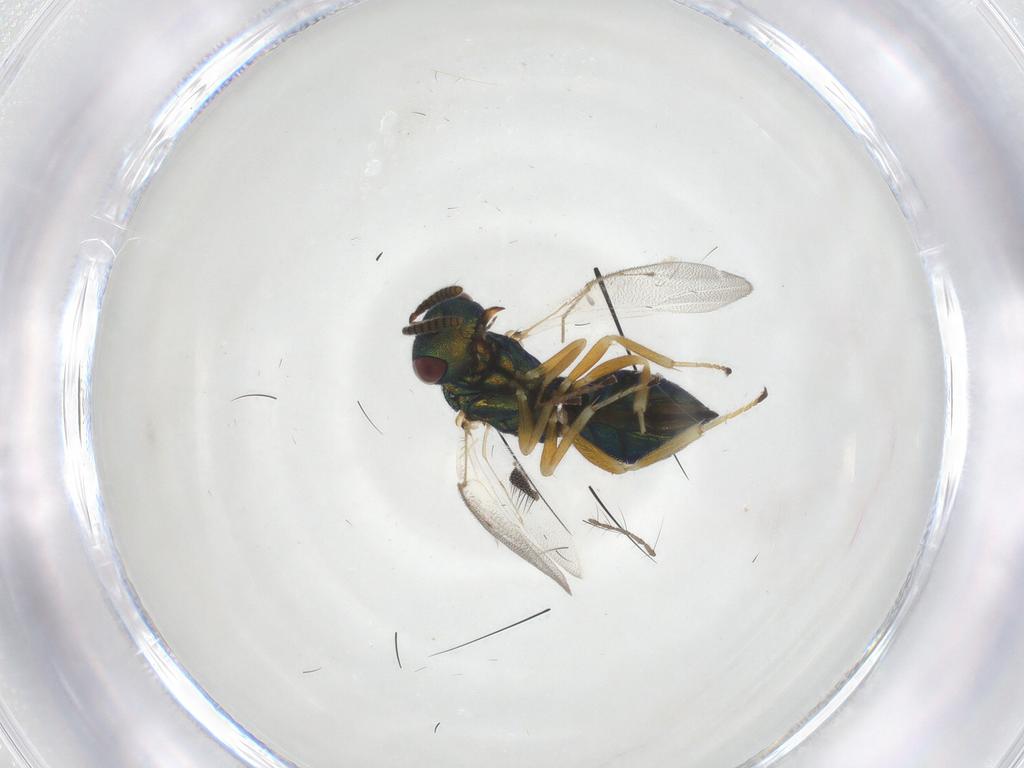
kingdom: Animalia
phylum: Arthropoda
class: Insecta
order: Hymenoptera
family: Pteromalidae
